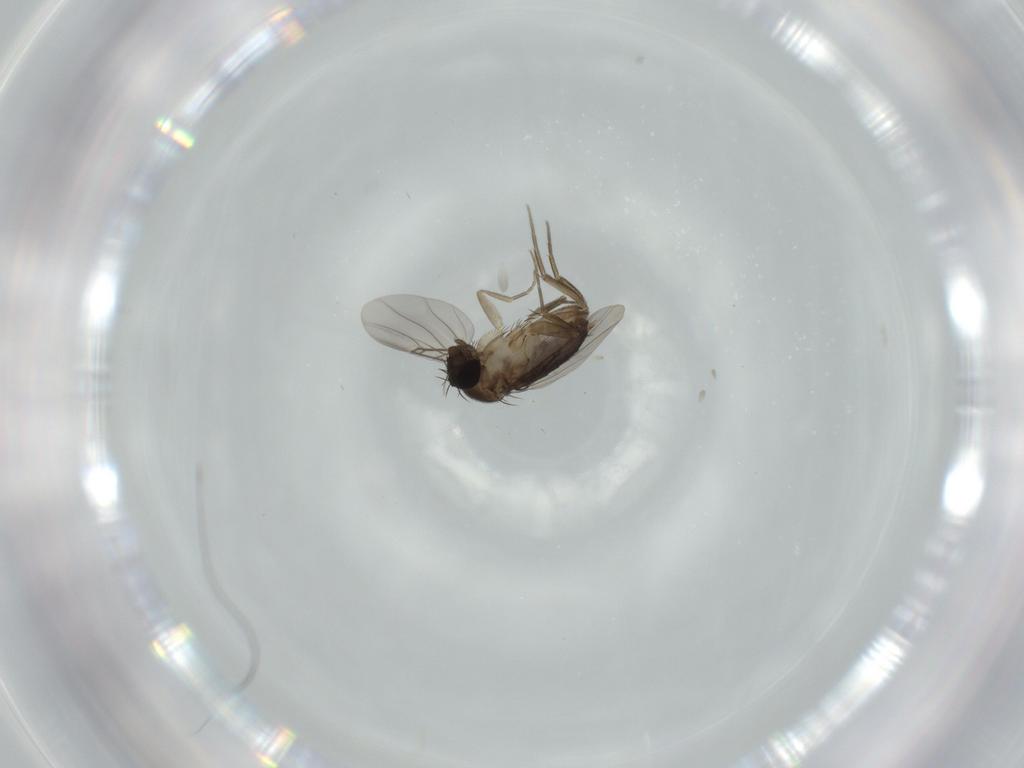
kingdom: Animalia
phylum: Arthropoda
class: Insecta
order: Diptera
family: Phoridae
